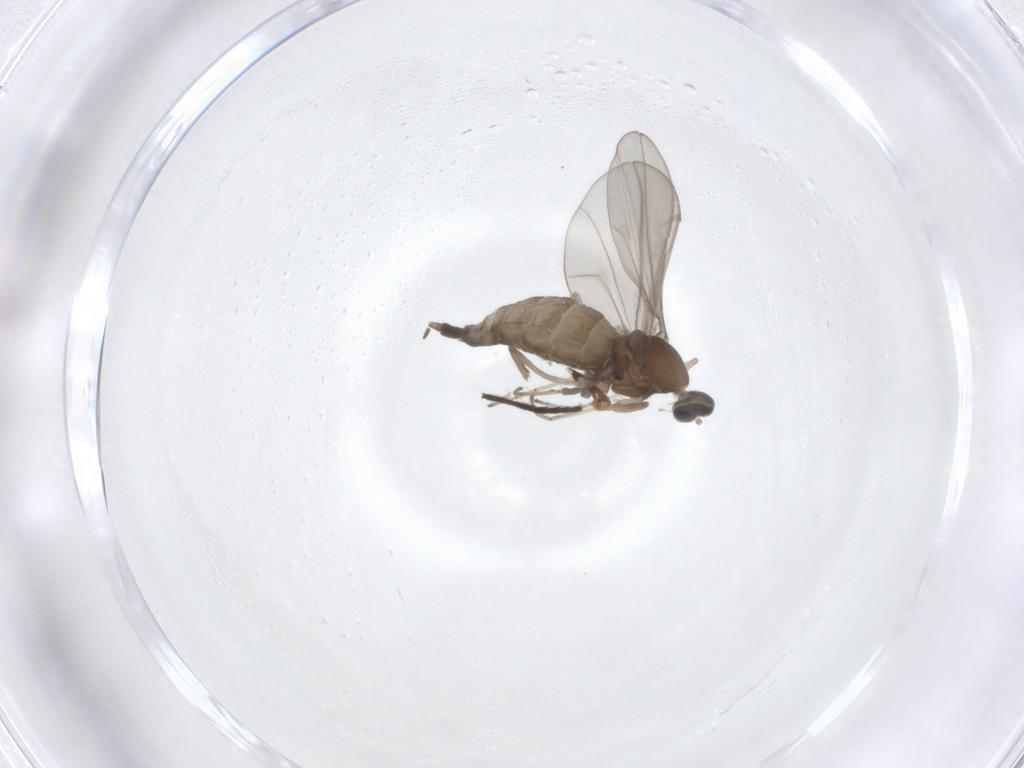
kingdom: Animalia
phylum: Arthropoda
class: Insecta
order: Diptera
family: Cecidomyiidae
